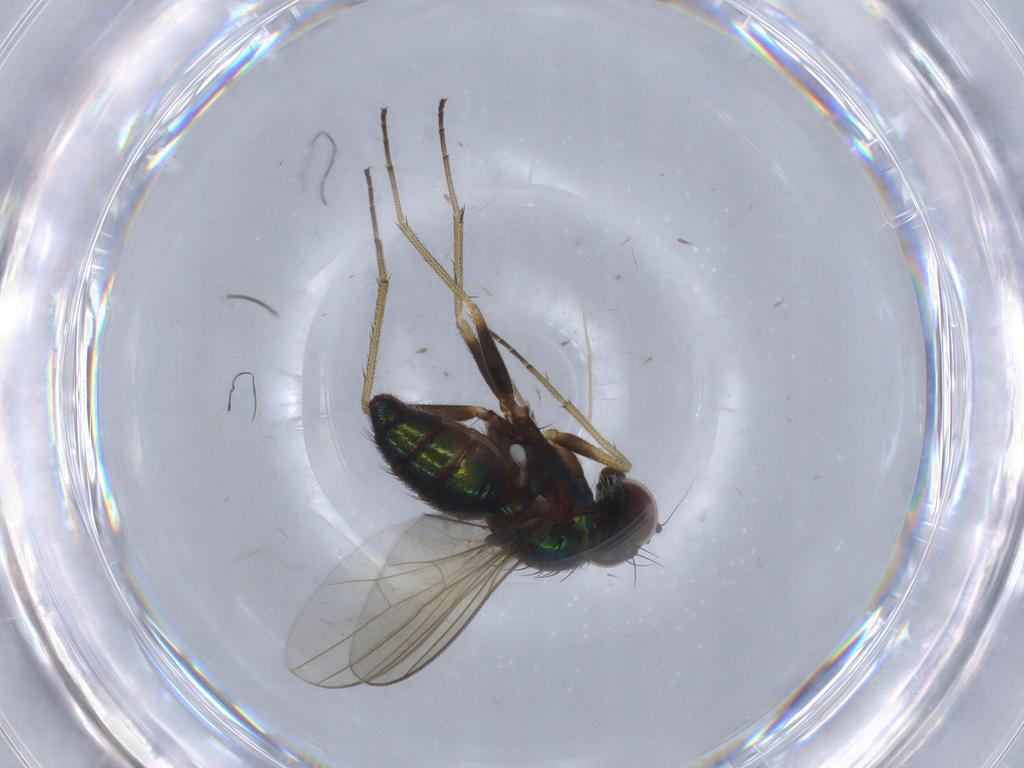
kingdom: Animalia
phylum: Arthropoda
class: Insecta
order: Diptera
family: Dolichopodidae
